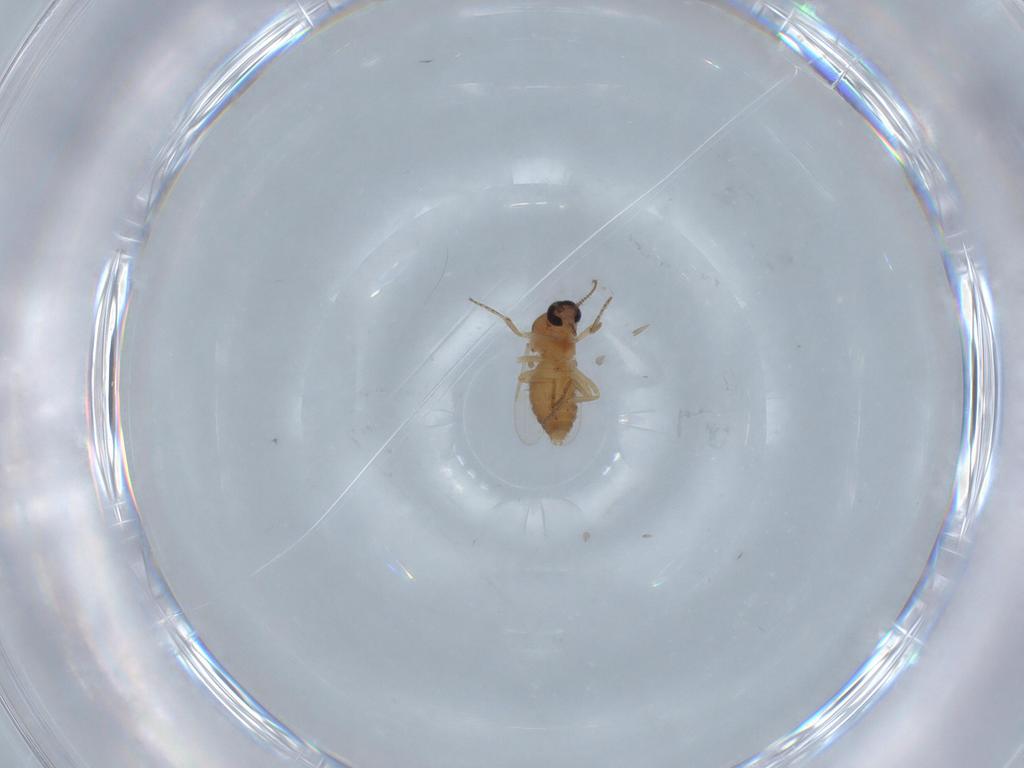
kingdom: Animalia
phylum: Arthropoda
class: Insecta
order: Diptera
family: Ceratopogonidae
